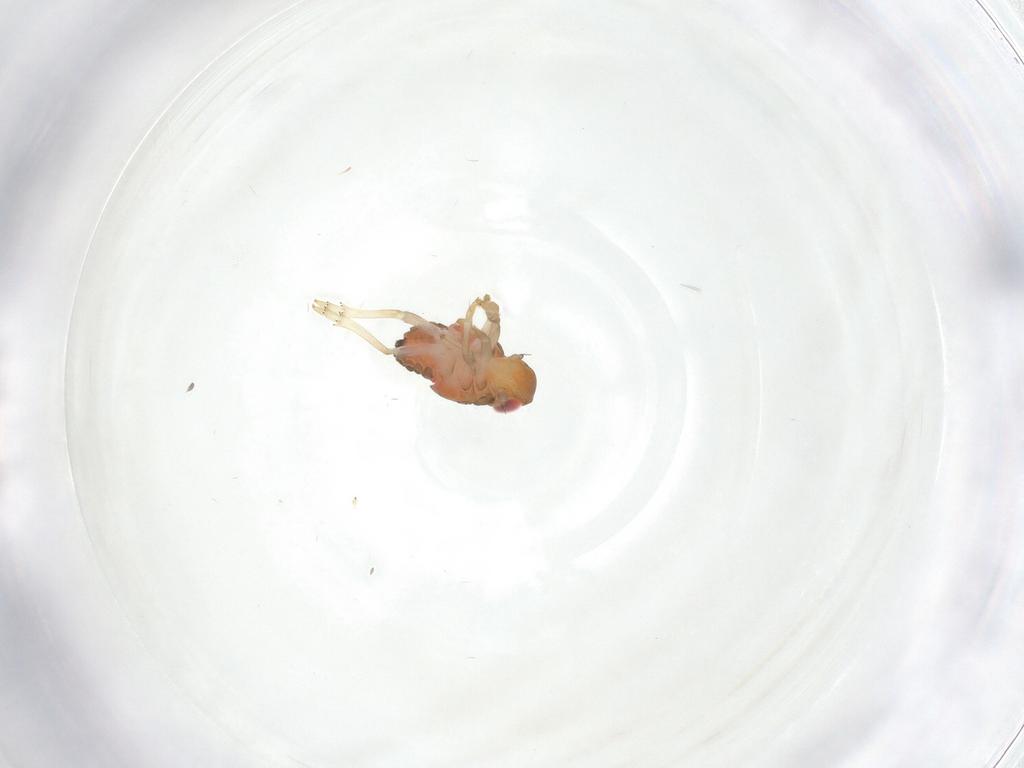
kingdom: Animalia
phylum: Arthropoda
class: Insecta
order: Hemiptera
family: Issidae
